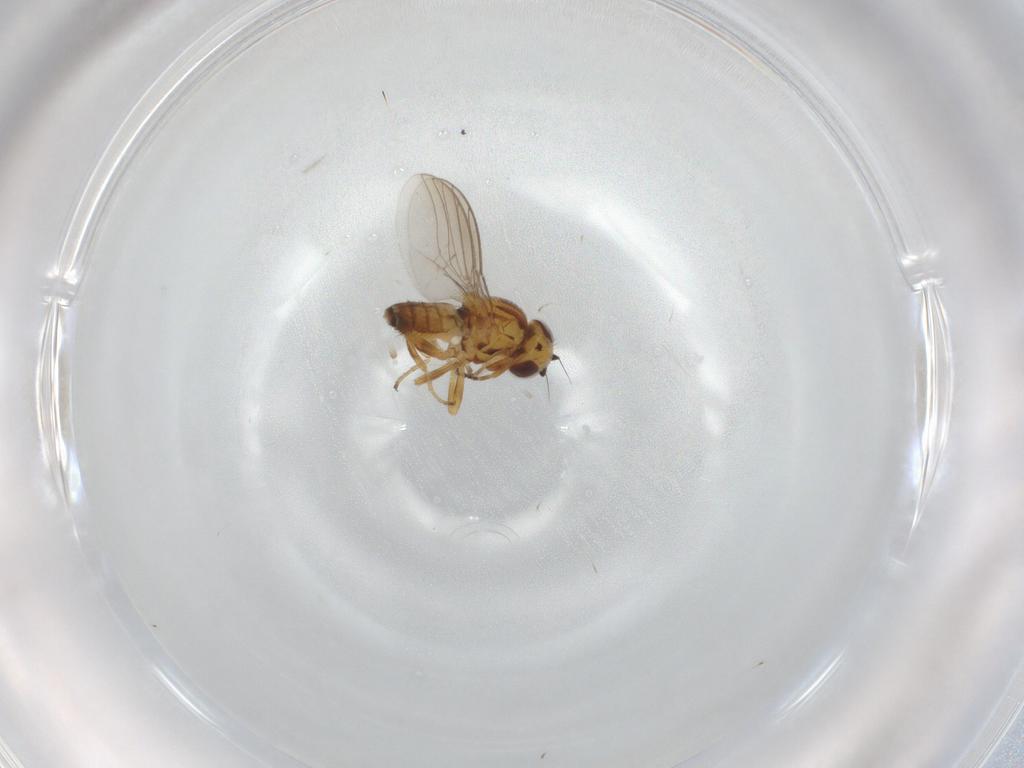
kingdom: Animalia
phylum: Arthropoda
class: Insecta
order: Diptera
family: Chloropidae
